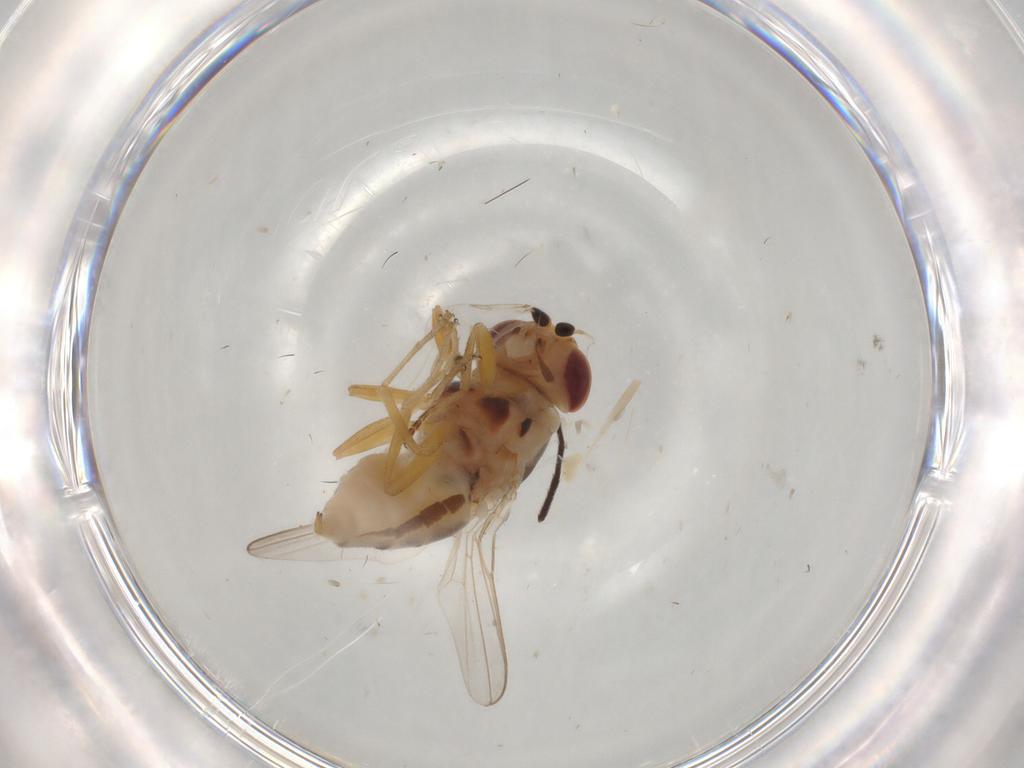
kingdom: Animalia
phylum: Arthropoda
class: Insecta
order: Diptera
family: Chloropidae
